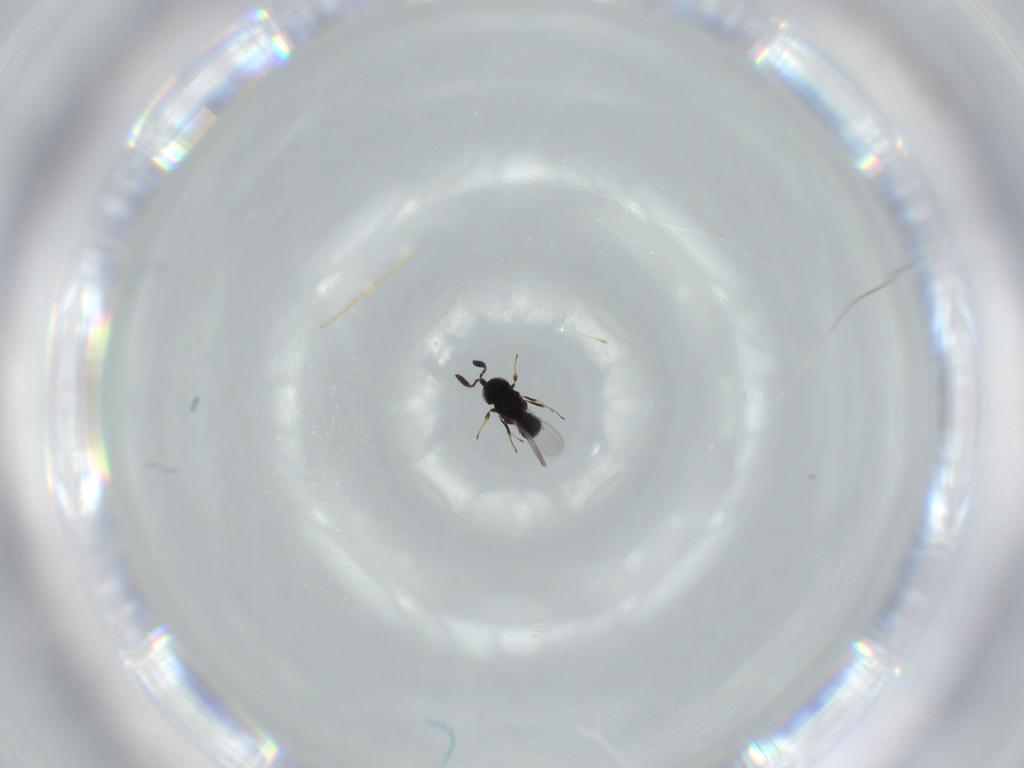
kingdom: Animalia
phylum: Arthropoda
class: Insecta
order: Hymenoptera
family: Scelionidae
